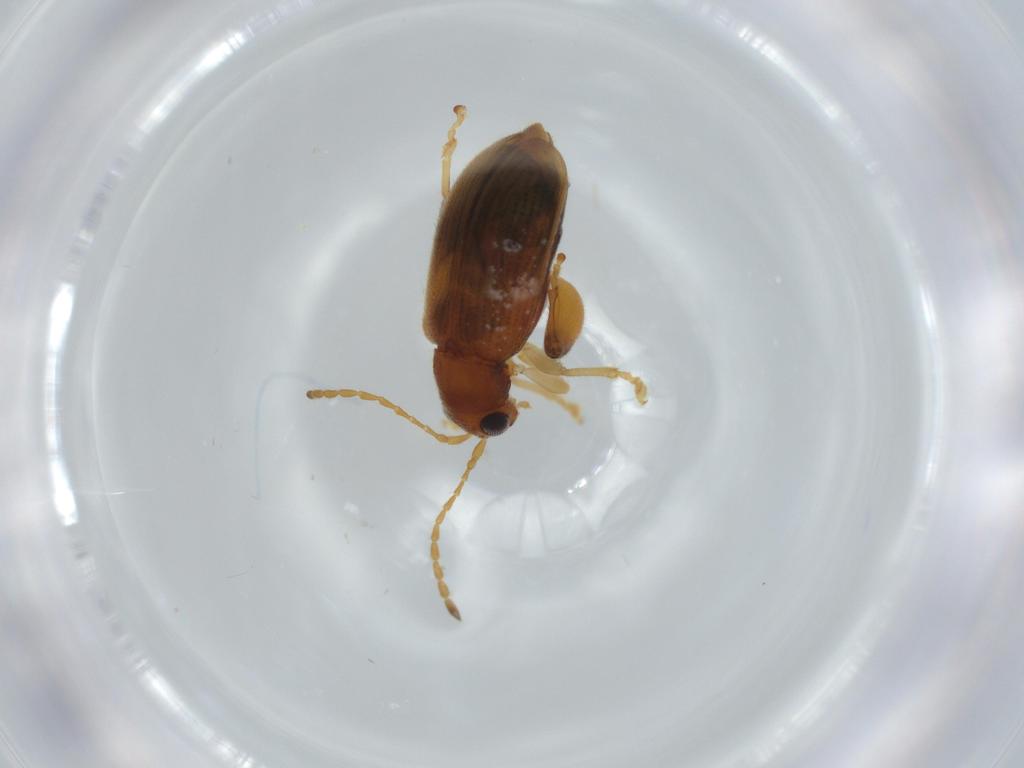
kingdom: Animalia
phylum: Arthropoda
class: Insecta
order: Coleoptera
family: Chrysomelidae
